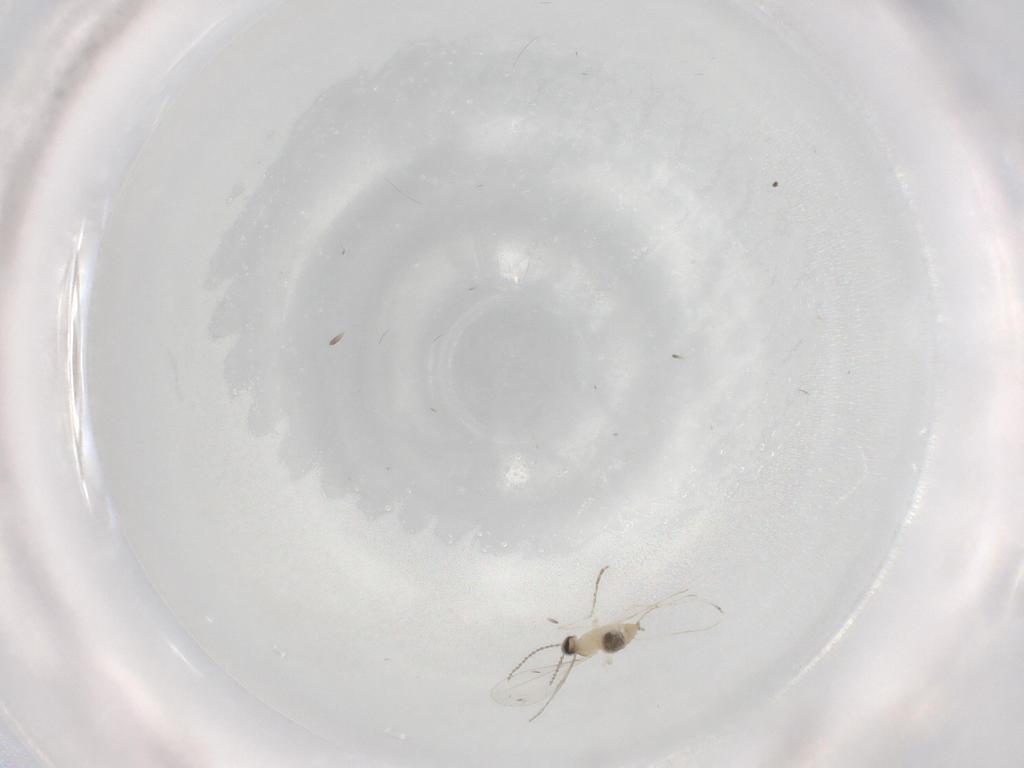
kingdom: Animalia
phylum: Arthropoda
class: Insecta
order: Diptera
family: Cecidomyiidae
